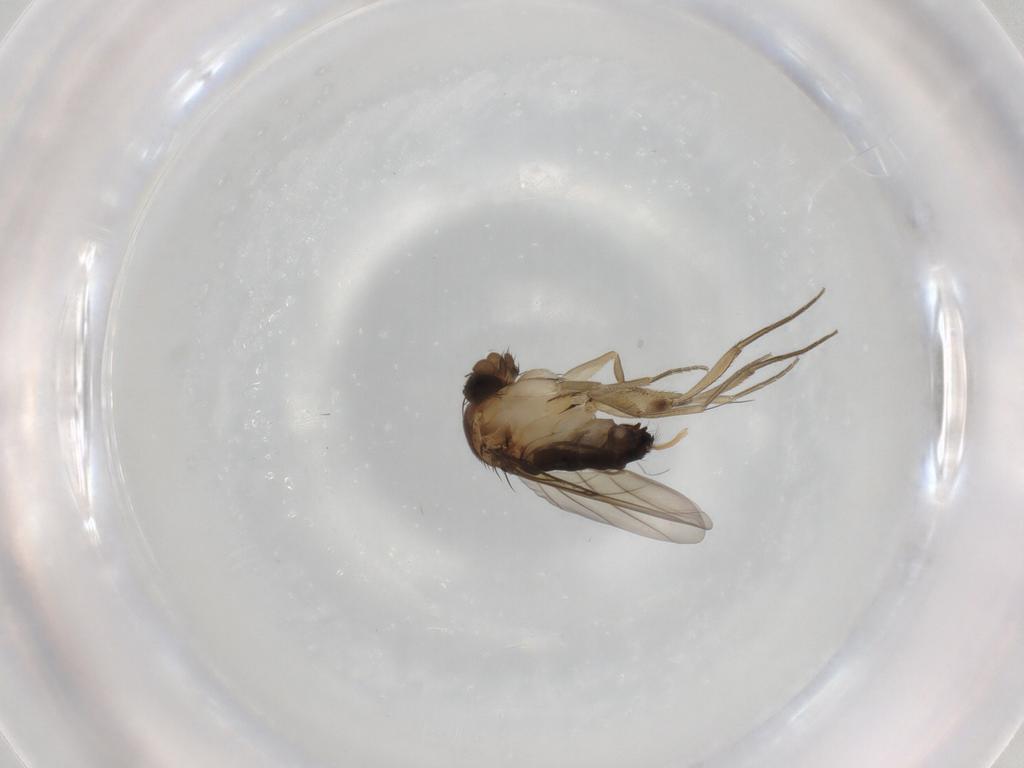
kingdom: Animalia
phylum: Arthropoda
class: Insecta
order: Diptera
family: Phoridae
